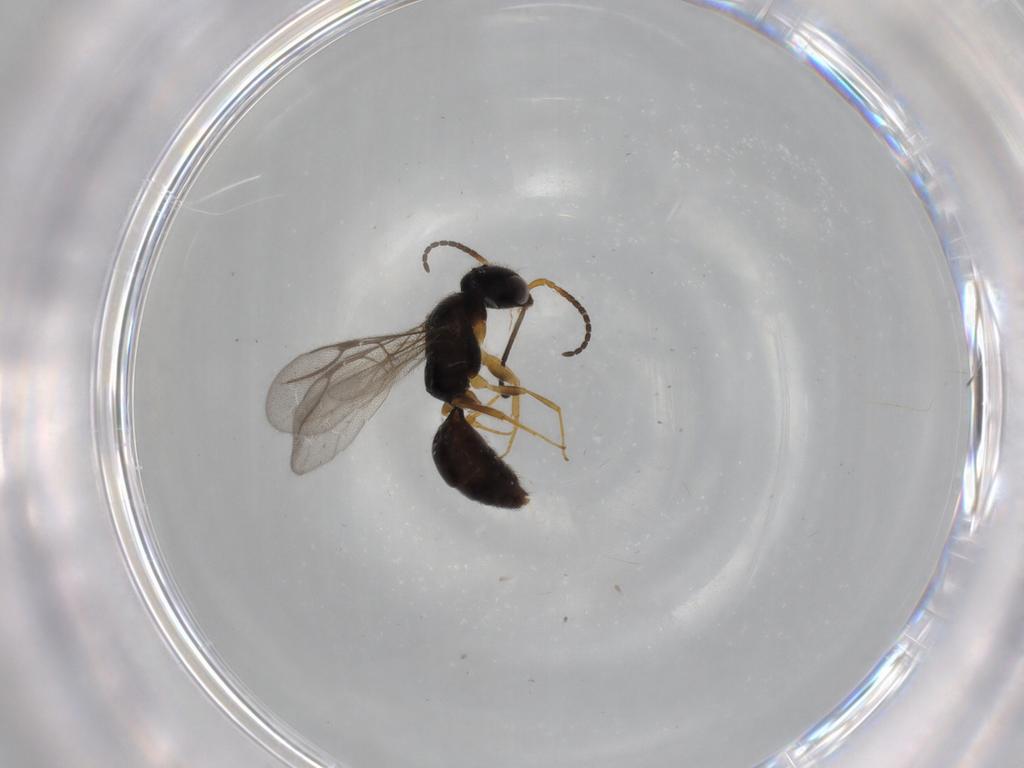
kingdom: Animalia
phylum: Arthropoda
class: Insecta
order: Hymenoptera
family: Bethylidae
